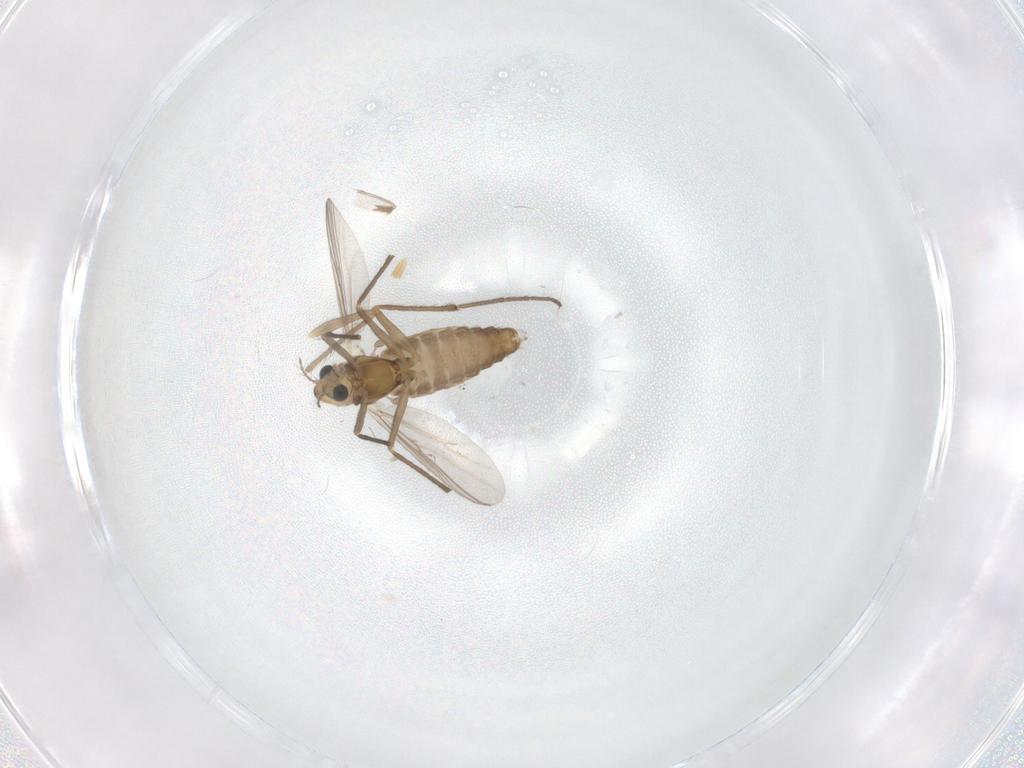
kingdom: Animalia
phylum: Arthropoda
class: Insecta
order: Diptera
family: Chironomidae
